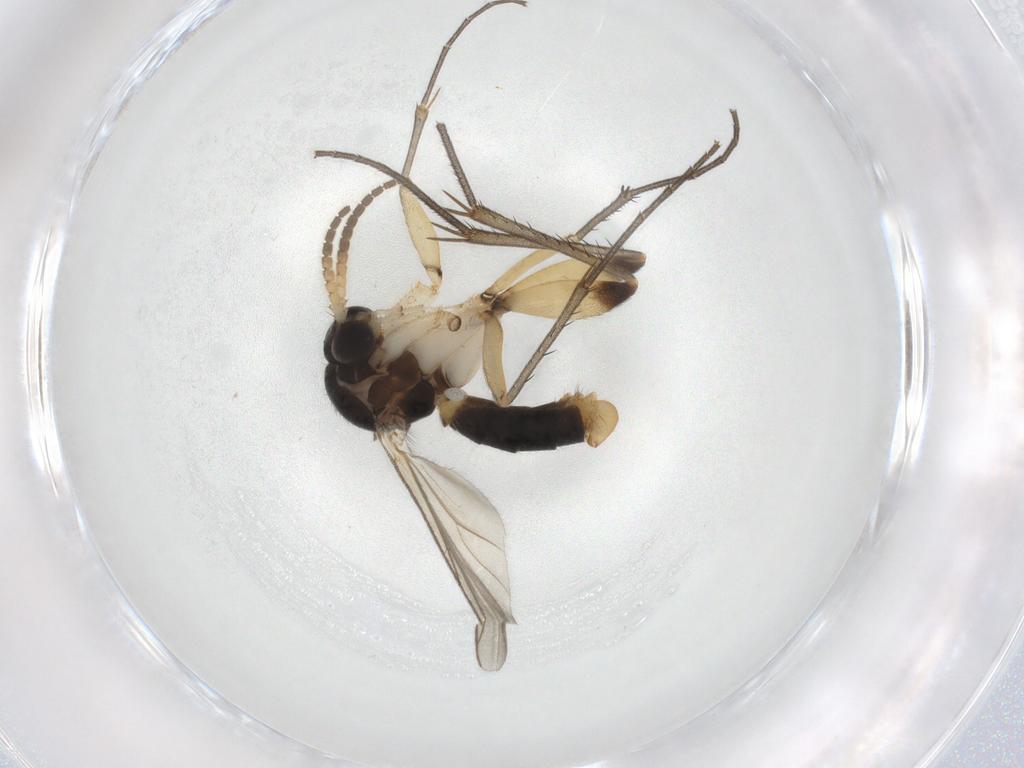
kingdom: Animalia
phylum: Arthropoda
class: Insecta
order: Diptera
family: Mycetophilidae
